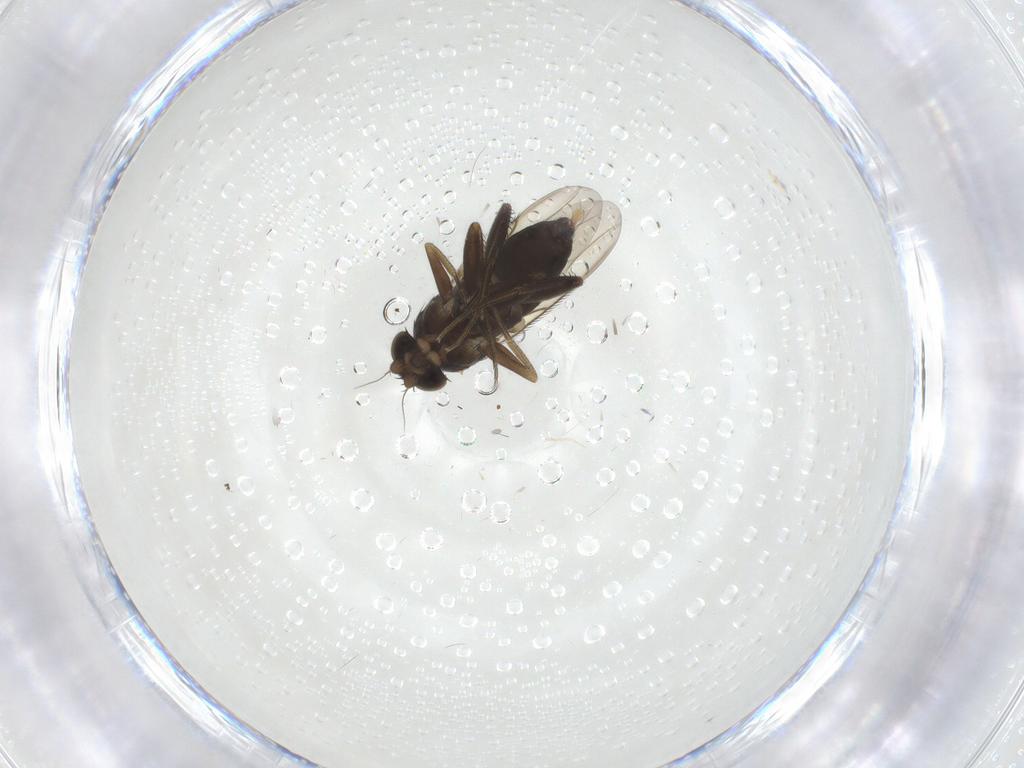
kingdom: Animalia
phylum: Arthropoda
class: Insecta
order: Diptera
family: Phoridae
